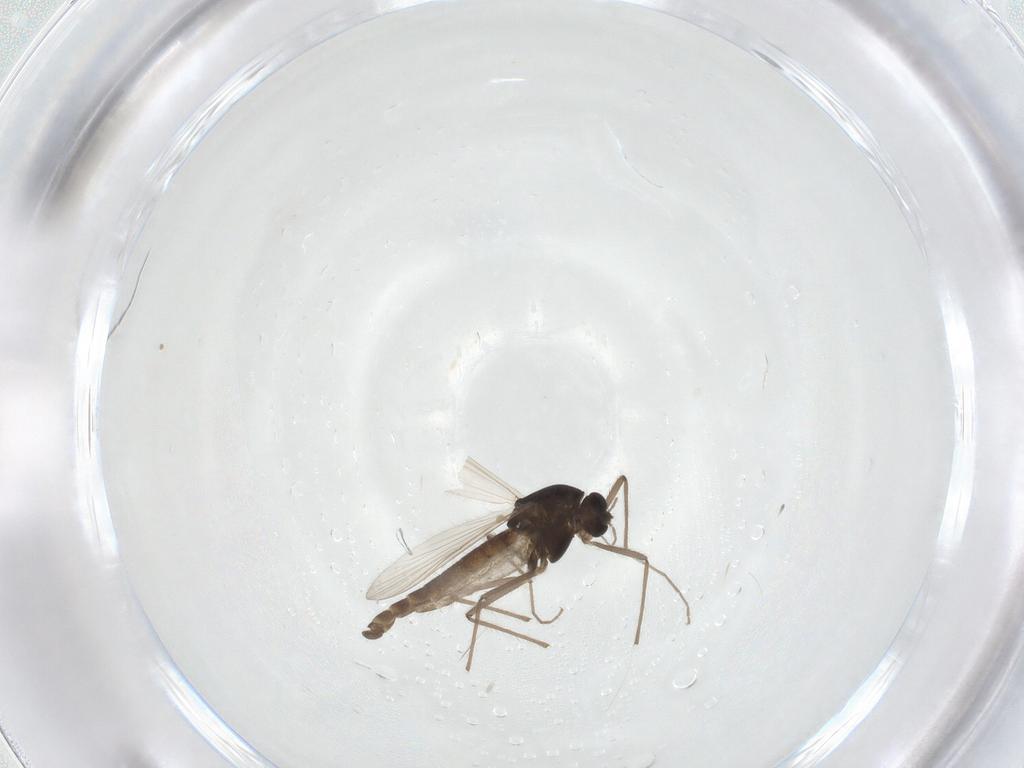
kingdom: Animalia
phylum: Arthropoda
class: Insecta
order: Diptera
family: Chironomidae
